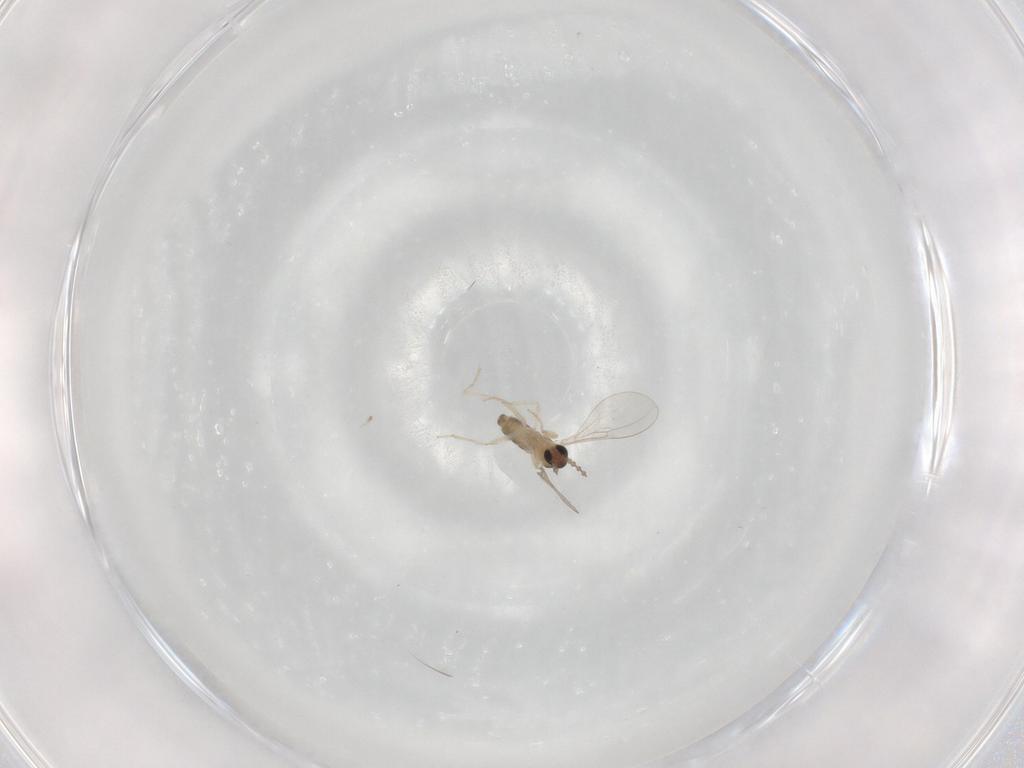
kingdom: Animalia
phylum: Arthropoda
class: Insecta
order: Diptera
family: Cecidomyiidae
